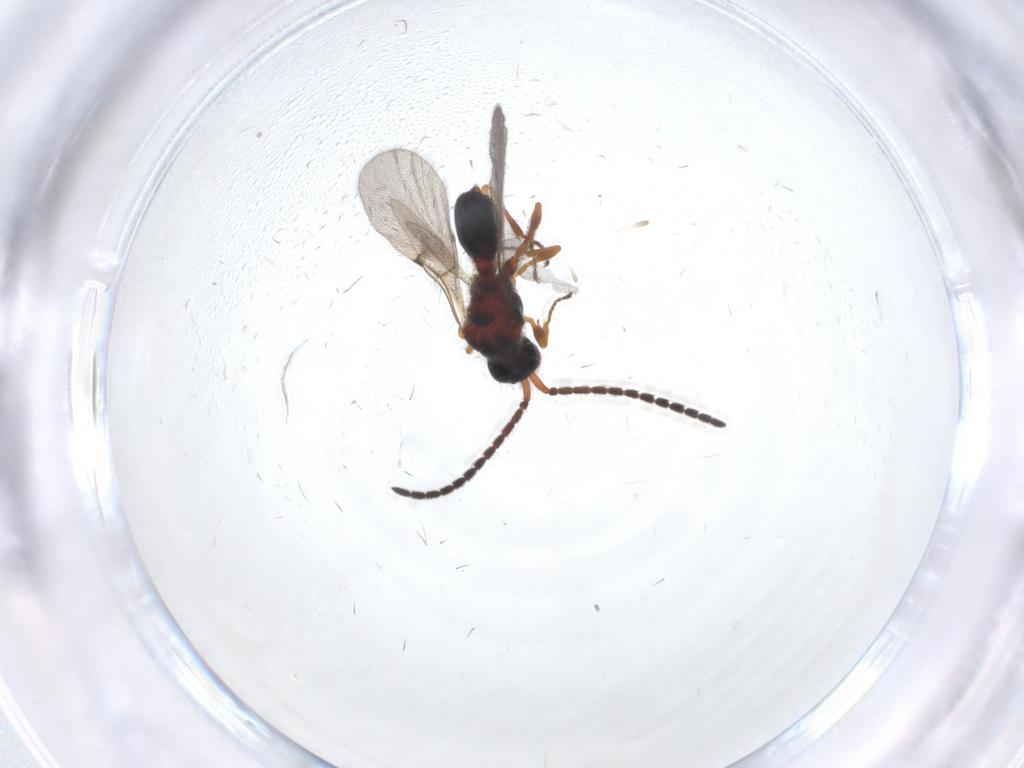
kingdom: Animalia
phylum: Arthropoda
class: Insecta
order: Hymenoptera
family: Diapriidae
